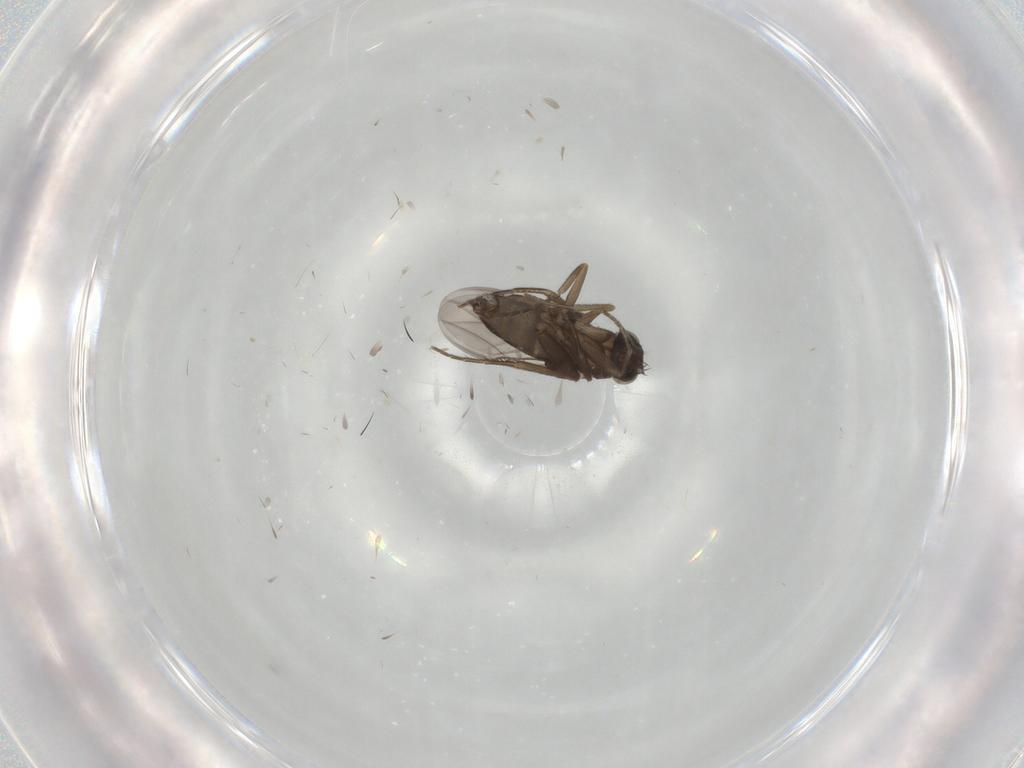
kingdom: Animalia
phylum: Arthropoda
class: Insecta
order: Diptera
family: Phoridae
